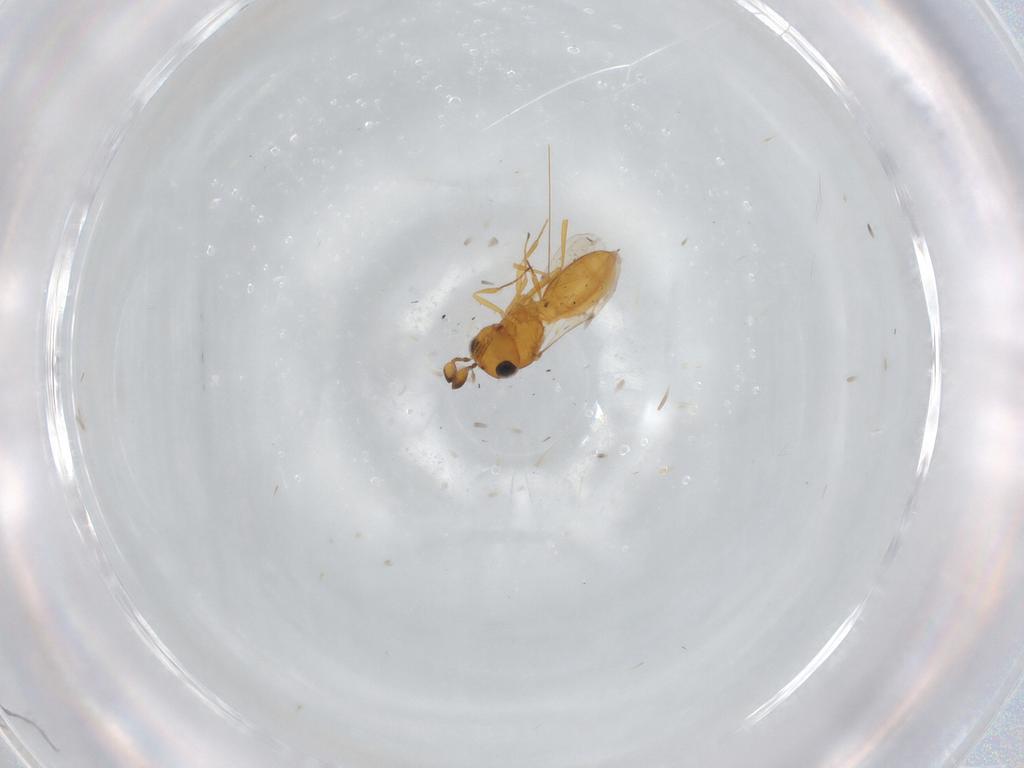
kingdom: Animalia
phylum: Arthropoda
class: Insecta
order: Hymenoptera
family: Scelionidae
